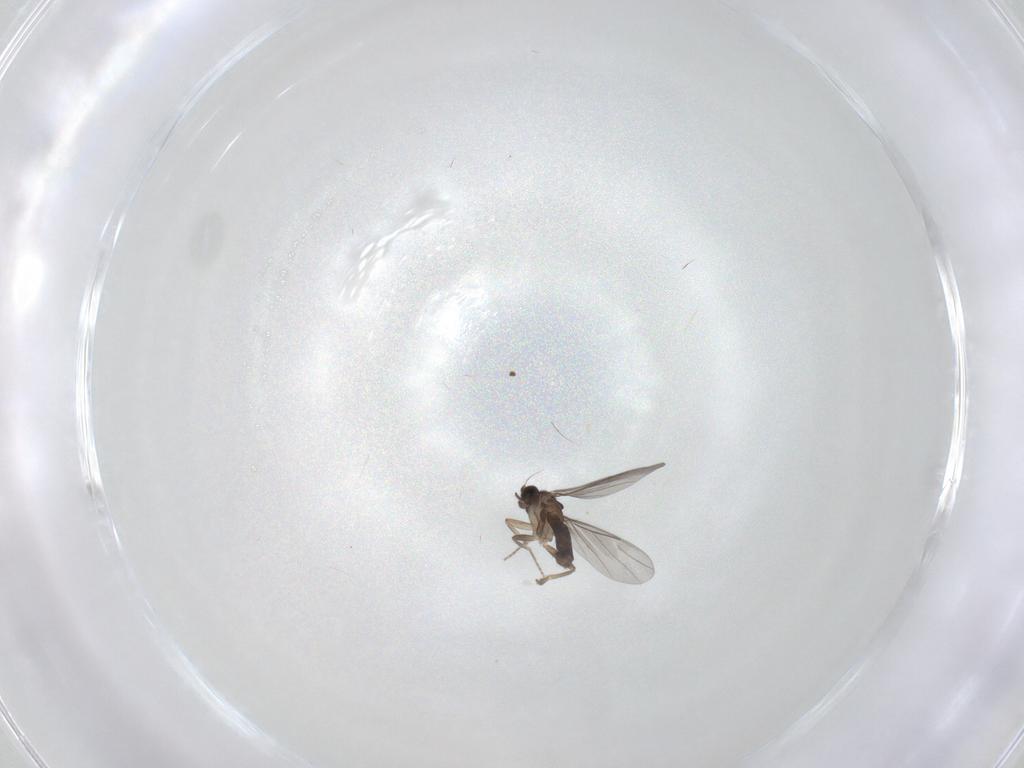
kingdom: Animalia
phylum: Arthropoda
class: Insecta
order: Diptera
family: Phoridae
